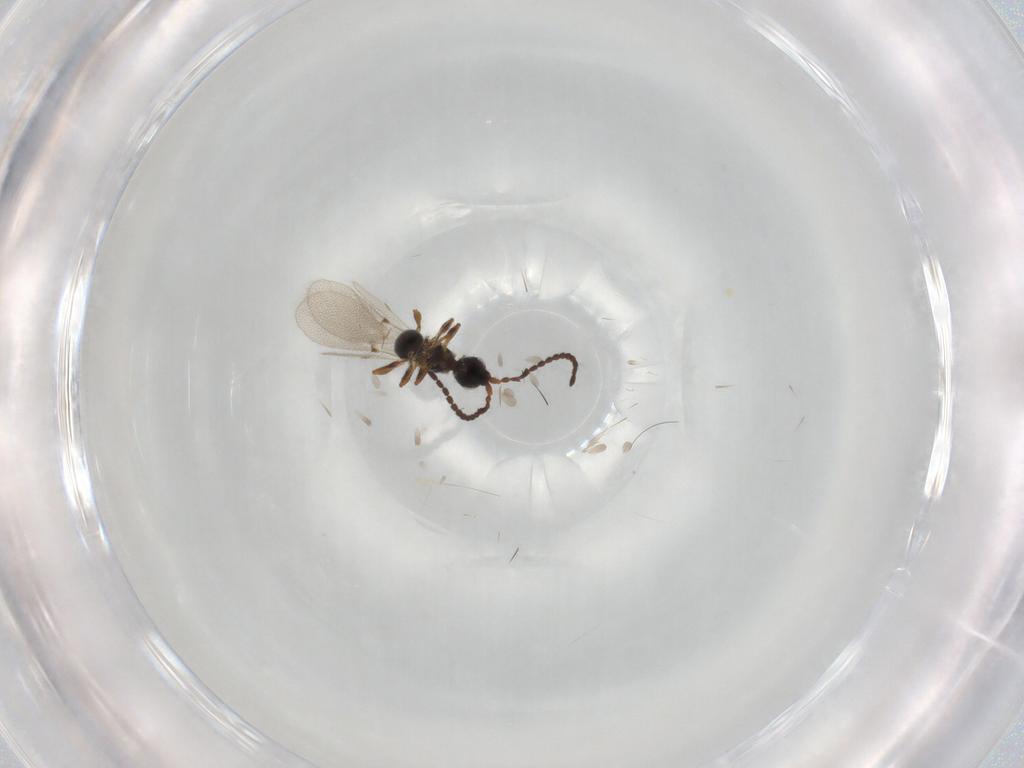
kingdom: Animalia
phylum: Arthropoda
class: Insecta
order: Hymenoptera
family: Diapriidae
